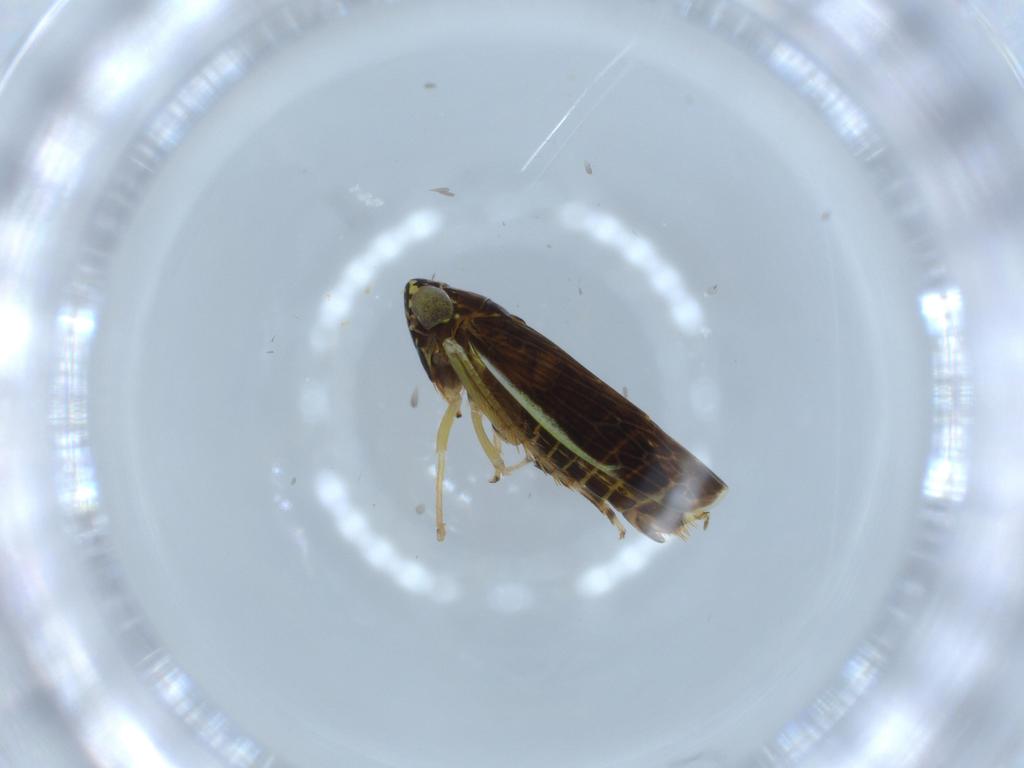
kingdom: Animalia
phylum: Arthropoda
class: Insecta
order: Hemiptera
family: Cicadellidae
